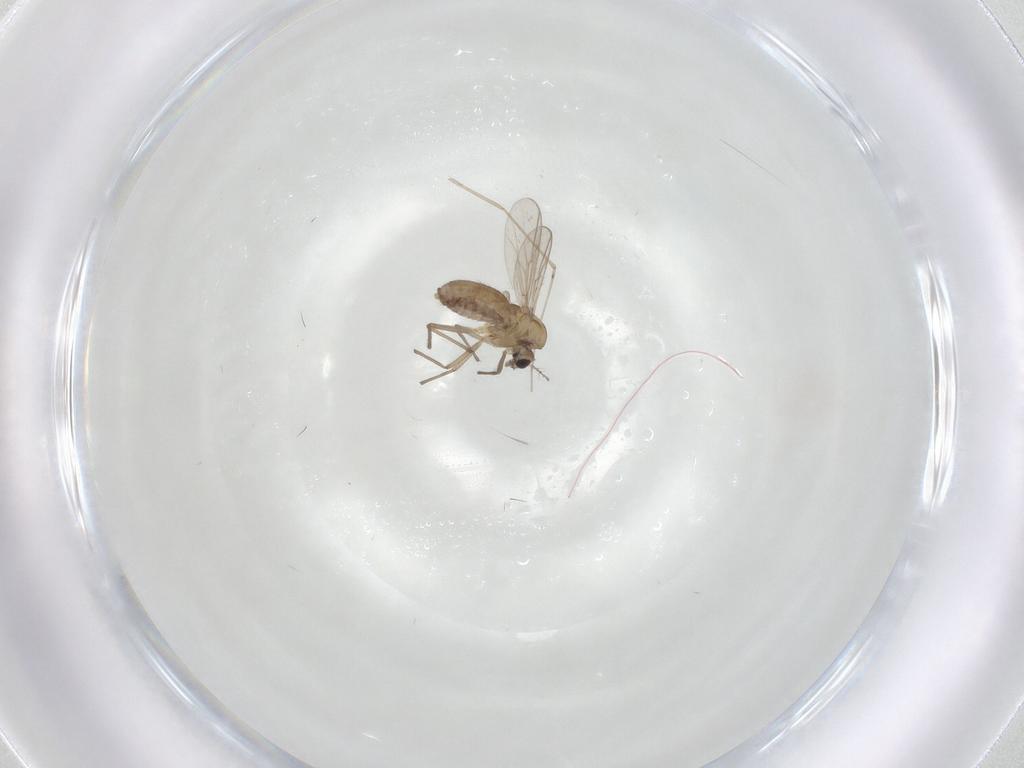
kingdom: Animalia
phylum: Arthropoda
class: Insecta
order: Diptera
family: Chironomidae
